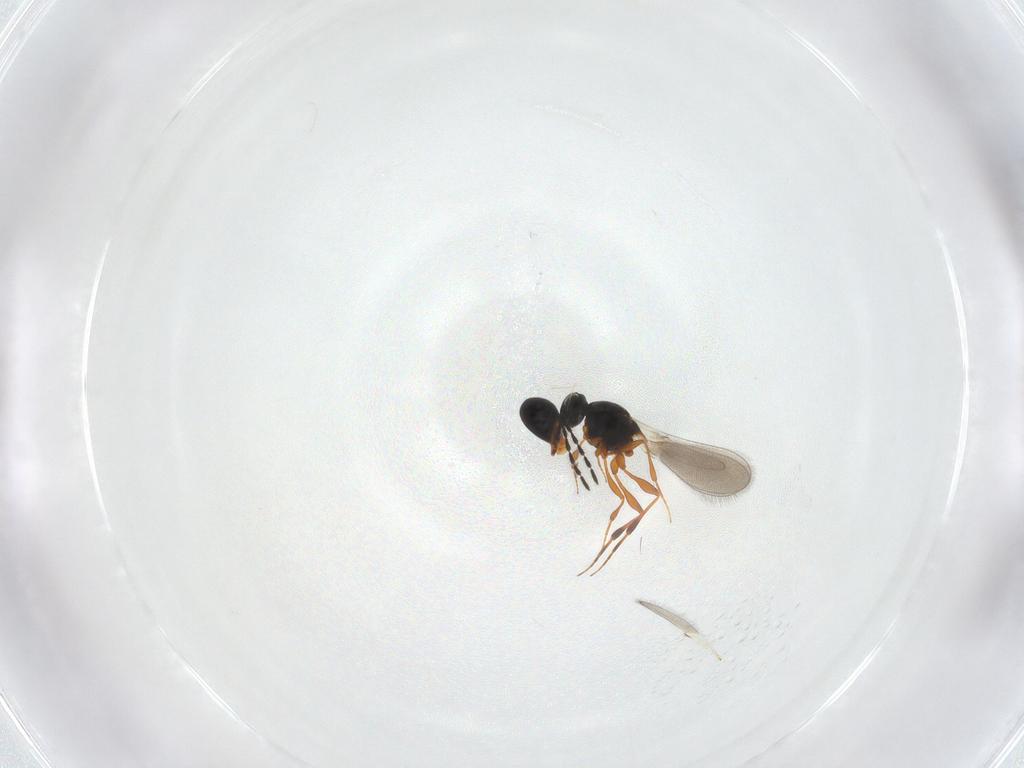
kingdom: Animalia
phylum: Arthropoda
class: Insecta
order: Hymenoptera
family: Platygastridae
